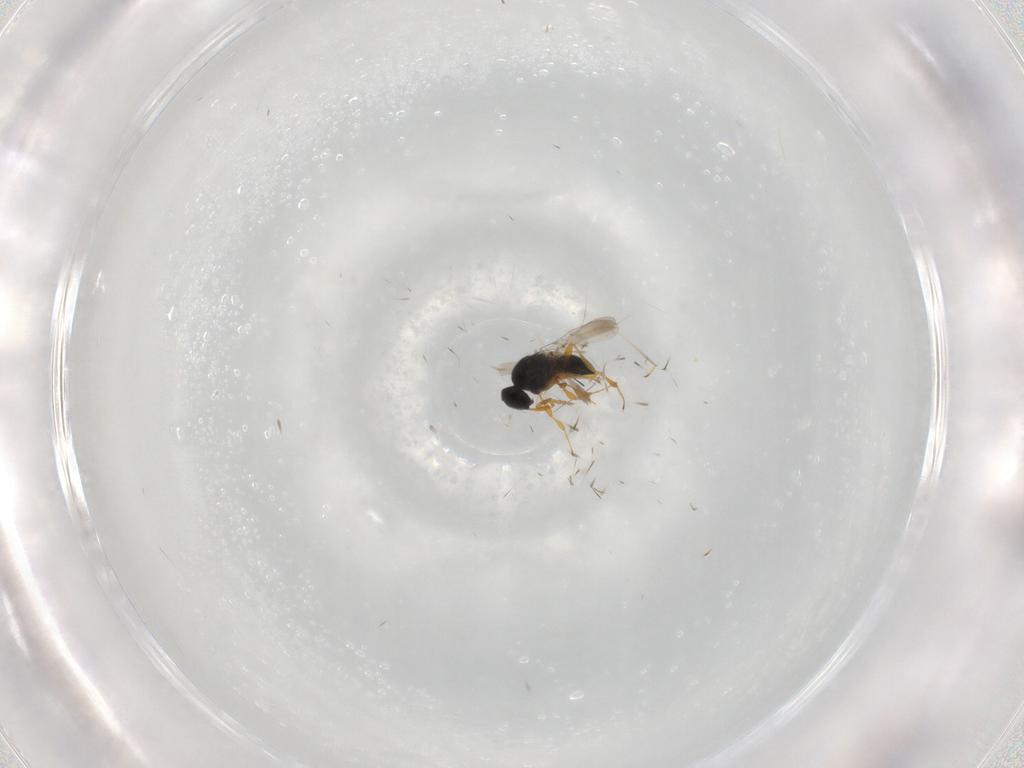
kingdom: Animalia
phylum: Arthropoda
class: Insecta
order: Hymenoptera
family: Platygastridae
